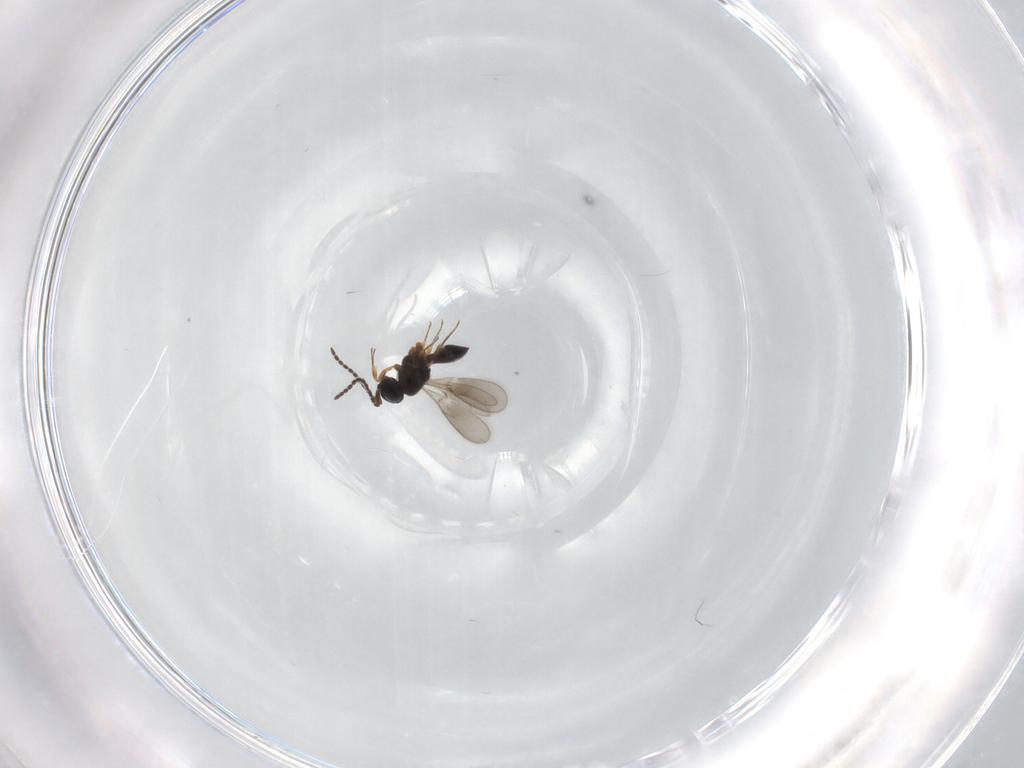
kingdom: Animalia
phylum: Arthropoda
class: Insecta
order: Hymenoptera
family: Scelionidae
